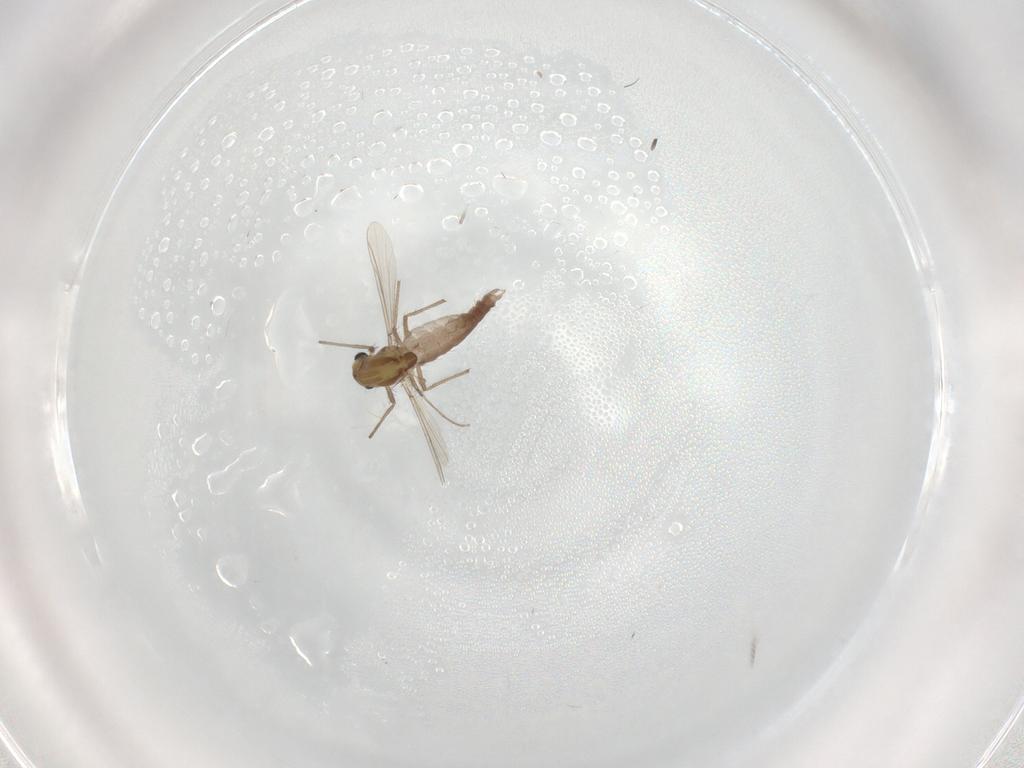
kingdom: Animalia
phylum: Arthropoda
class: Insecta
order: Diptera
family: Chironomidae
